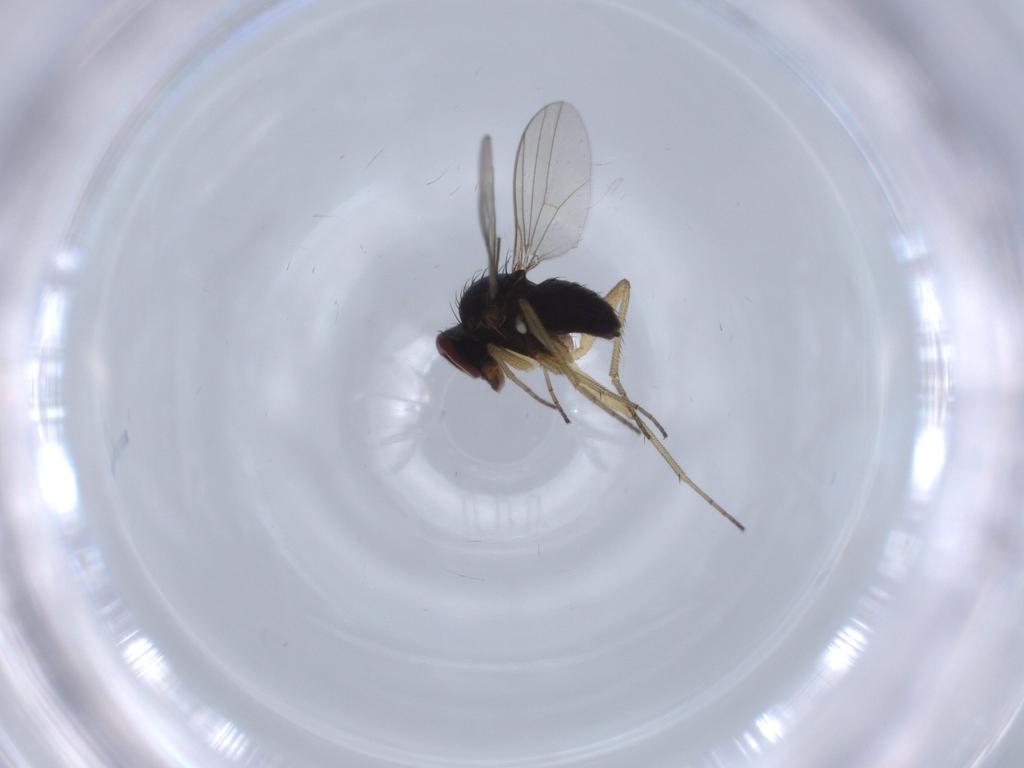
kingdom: Animalia
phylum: Arthropoda
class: Insecta
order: Diptera
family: Dolichopodidae
